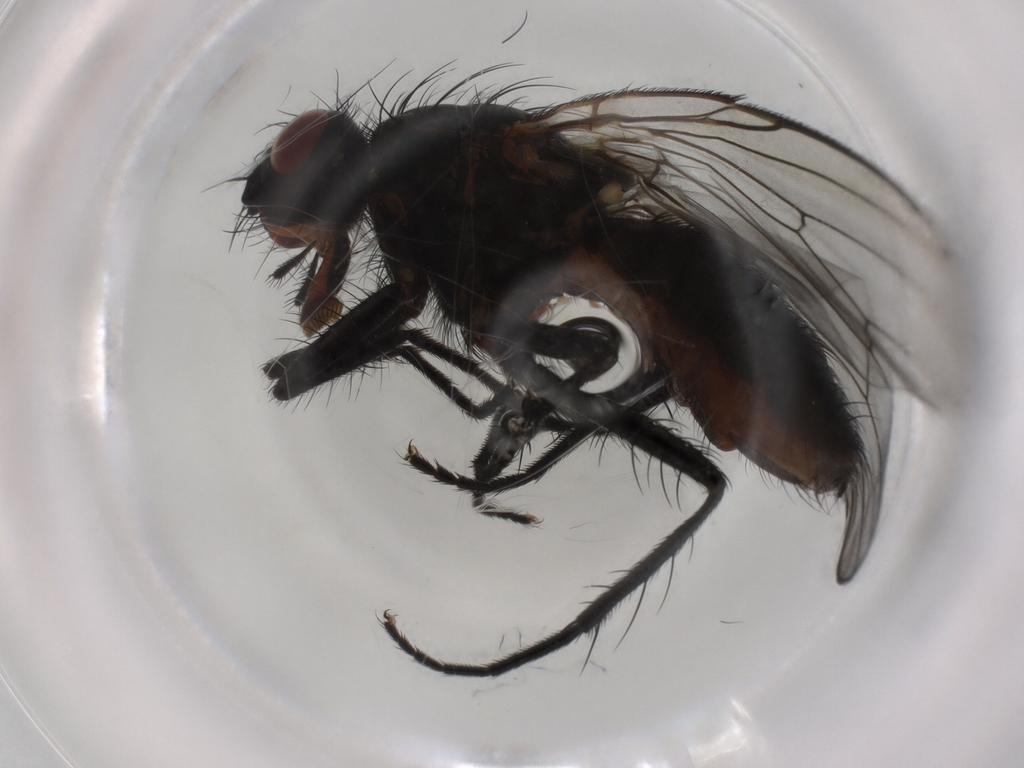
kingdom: Animalia
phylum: Arthropoda
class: Insecta
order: Diptera
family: Anthomyiidae
